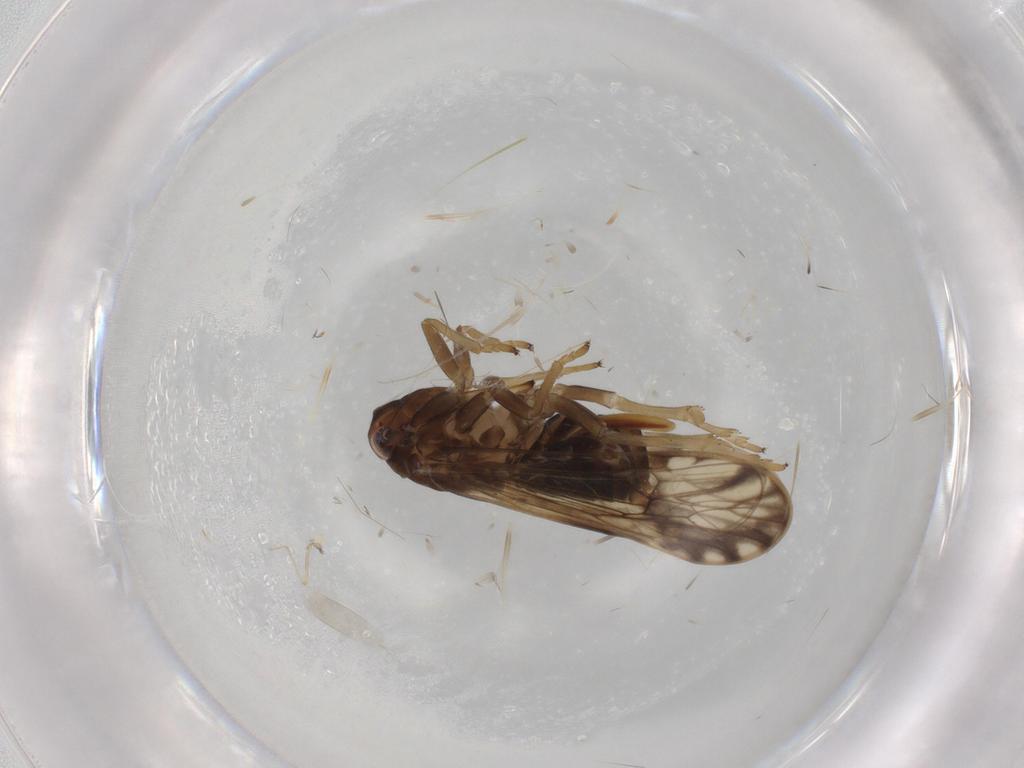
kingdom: Animalia
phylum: Arthropoda
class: Insecta
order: Hemiptera
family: Delphacidae
